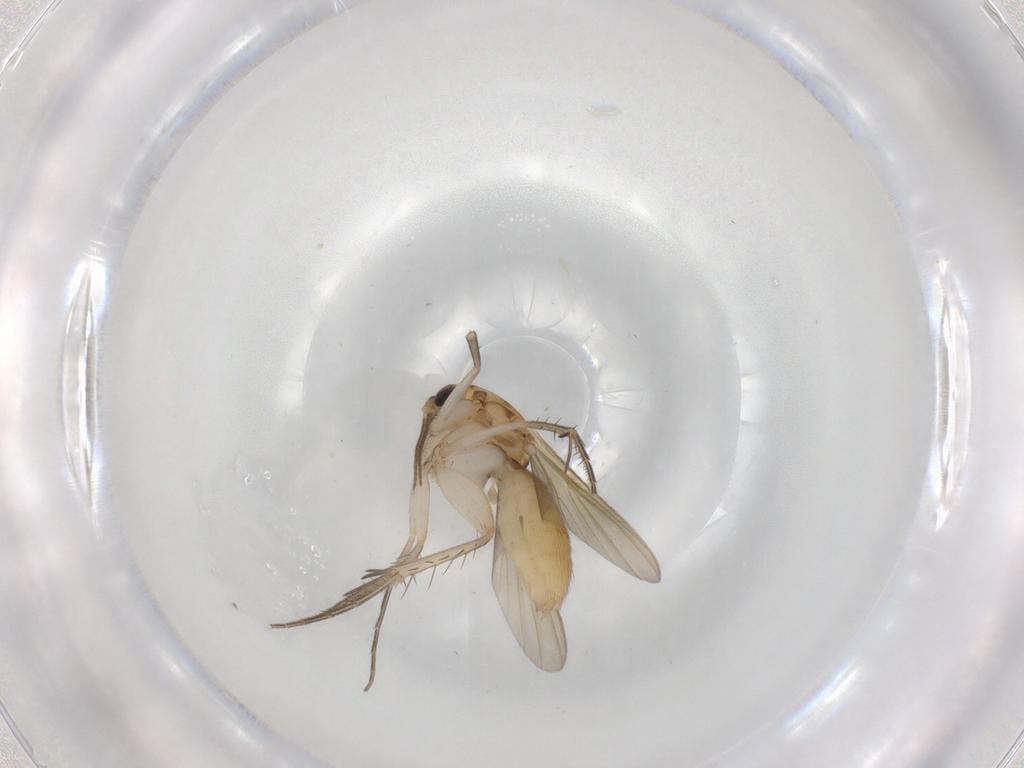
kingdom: Animalia
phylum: Arthropoda
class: Insecta
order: Diptera
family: Mycetophilidae
